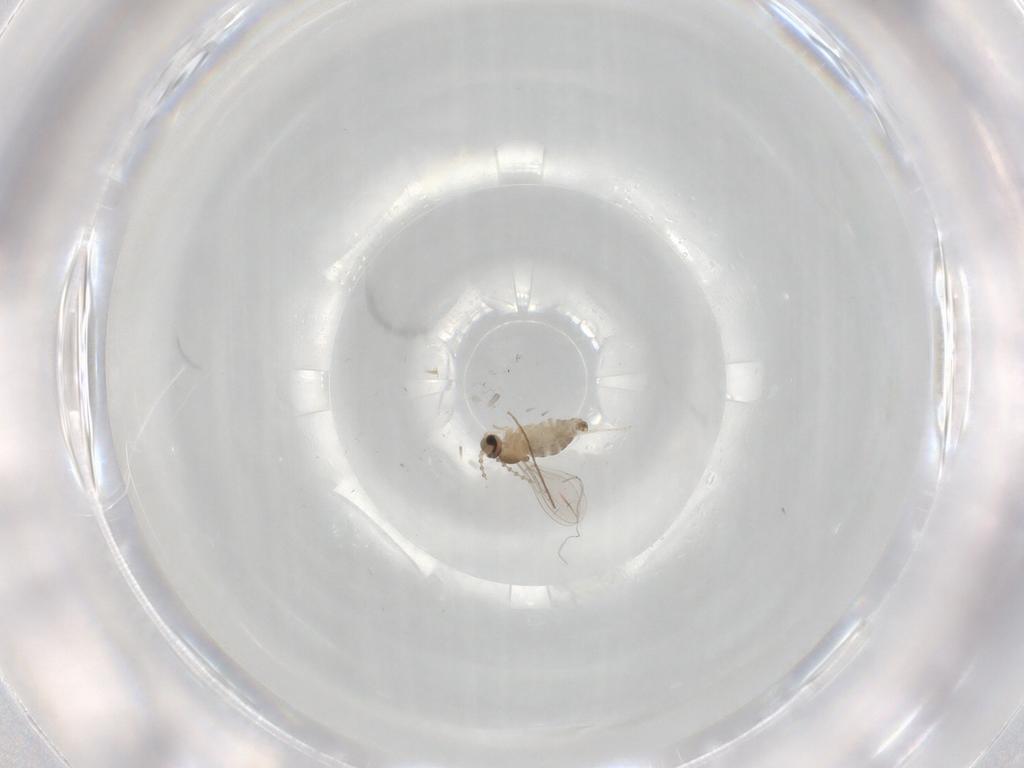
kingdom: Animalia
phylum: Arthropoda
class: Insecta
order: Diptera
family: Cecidomyiidae
